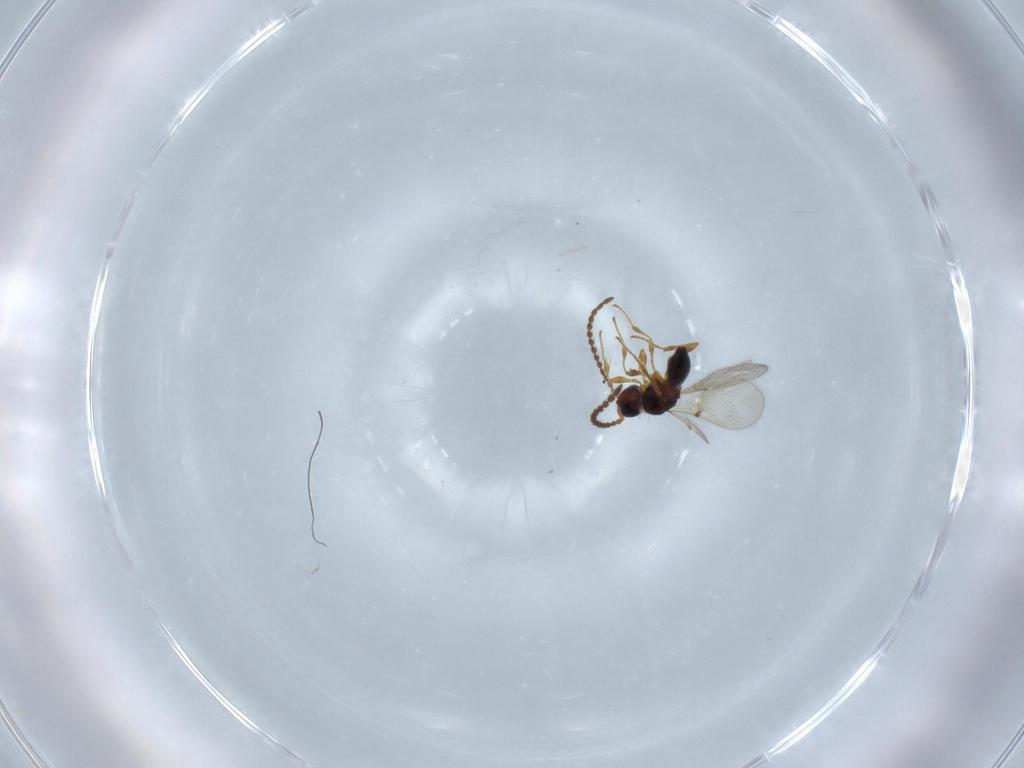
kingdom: Animalia
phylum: Arthropoda
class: Insecta
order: Hymenoptera
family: Diapriidae
